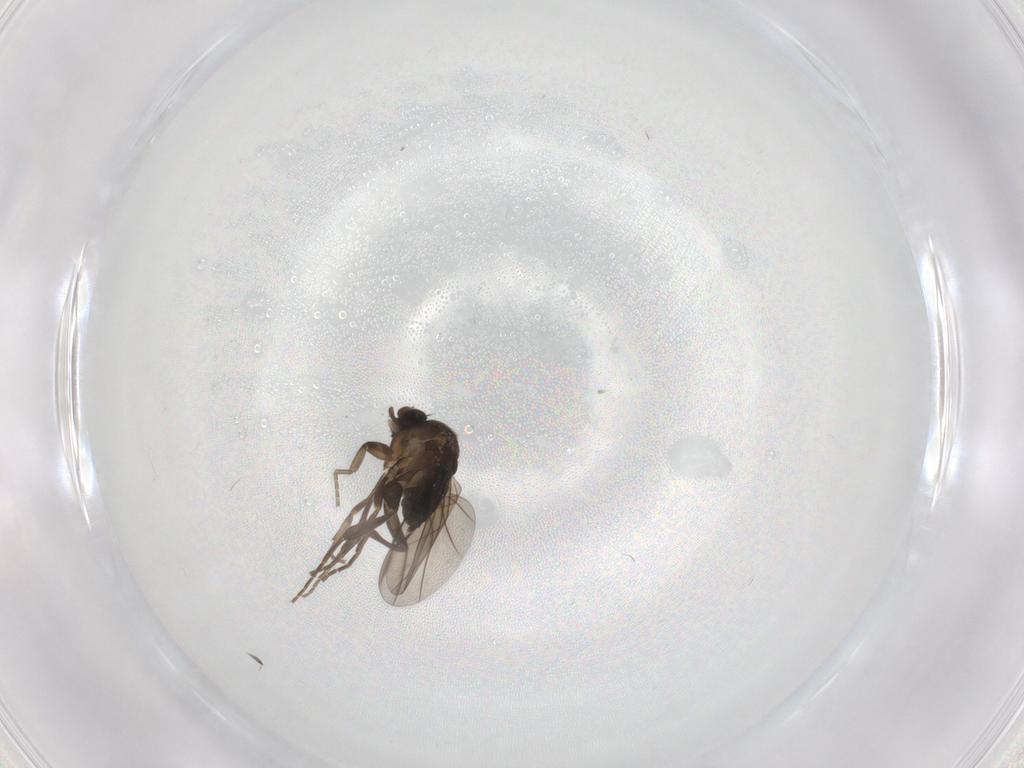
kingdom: Animalia
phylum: Arthropoda
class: Insecta
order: Diptera
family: Phoridae
